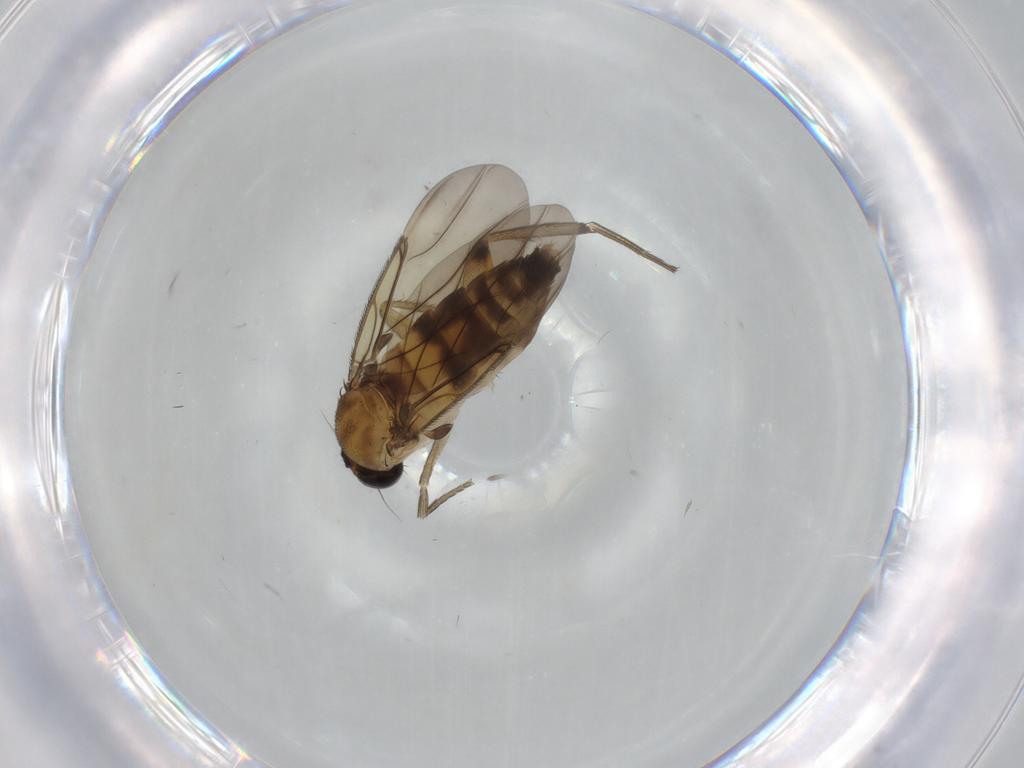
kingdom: Animalia
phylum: Arthropoda
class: Insecta
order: Diptera
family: Phoridae
